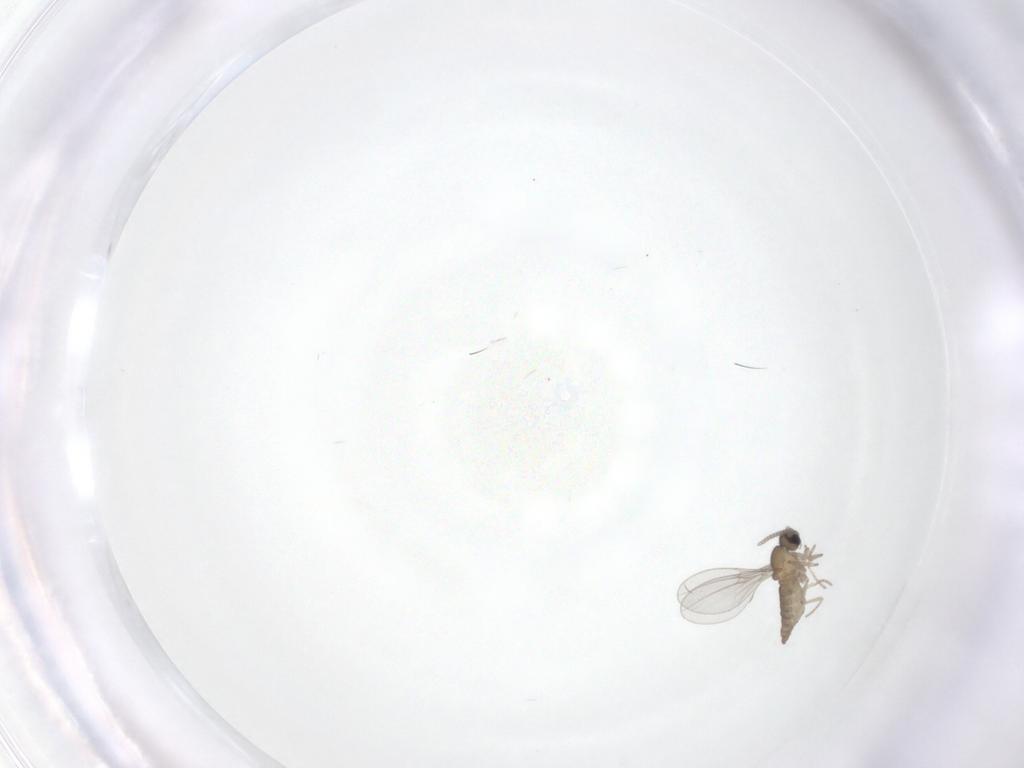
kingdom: Animalia
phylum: Arthropoda
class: Insecta
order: Diptera
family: Cecidomyiidae
